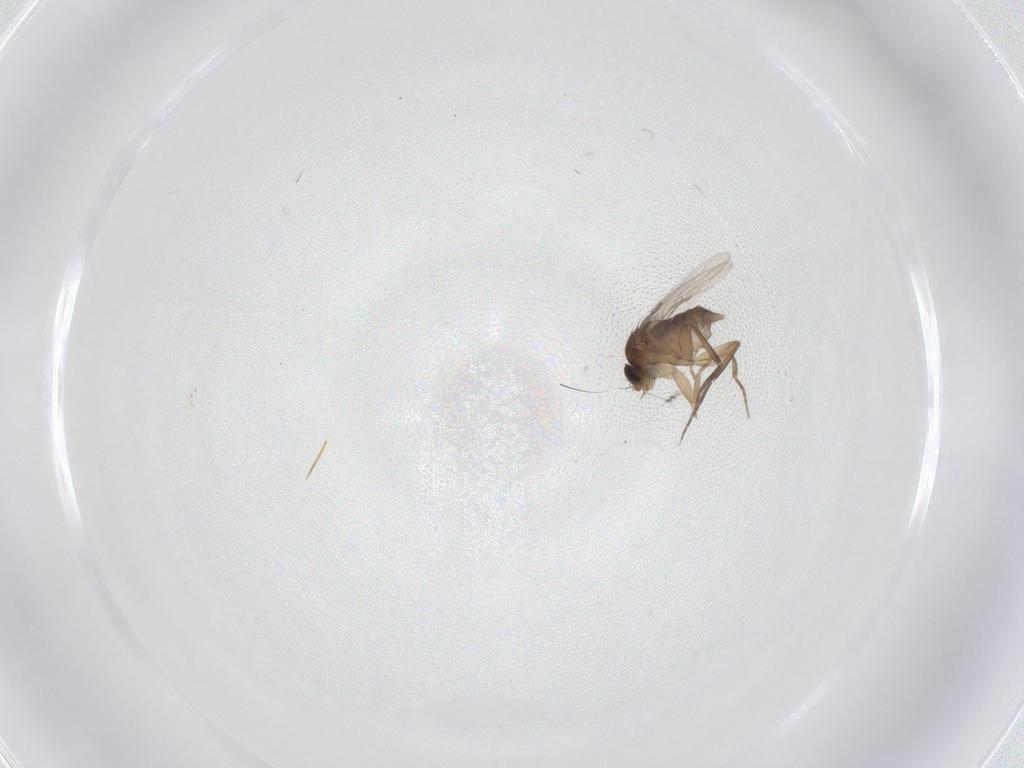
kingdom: Animalia
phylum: Arthropoda
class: Insecta
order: Diptera
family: Phoridae
